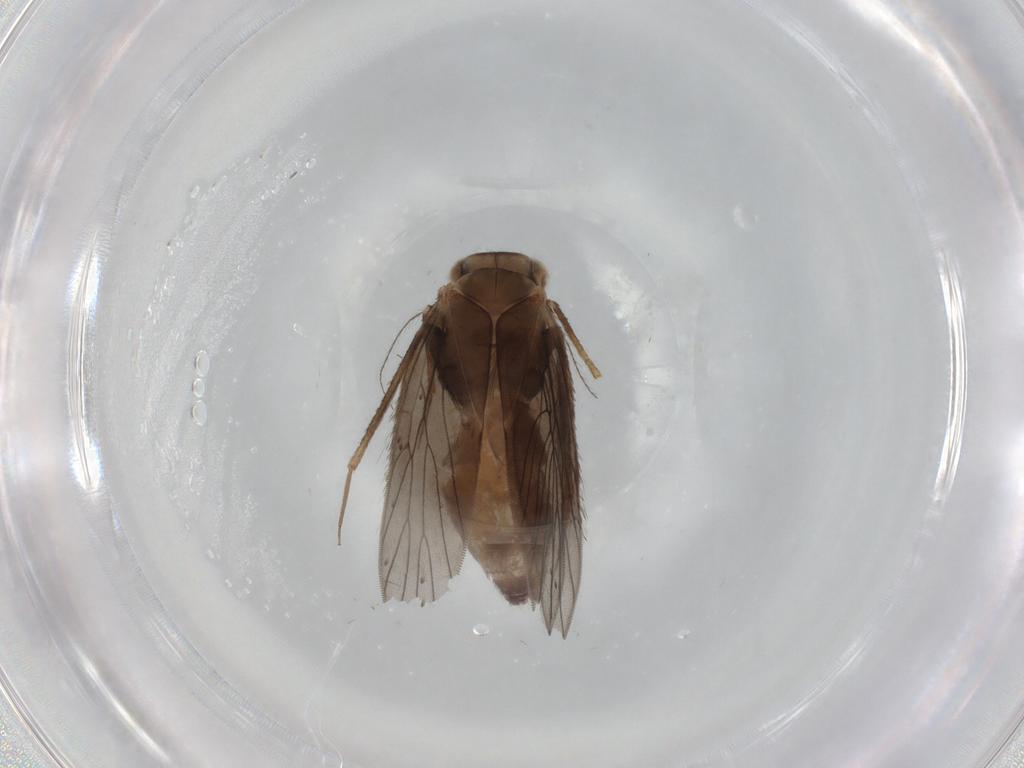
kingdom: Animalia
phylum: Arthropoda
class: Insecta
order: Psocodea
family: Lepidopsocidae
